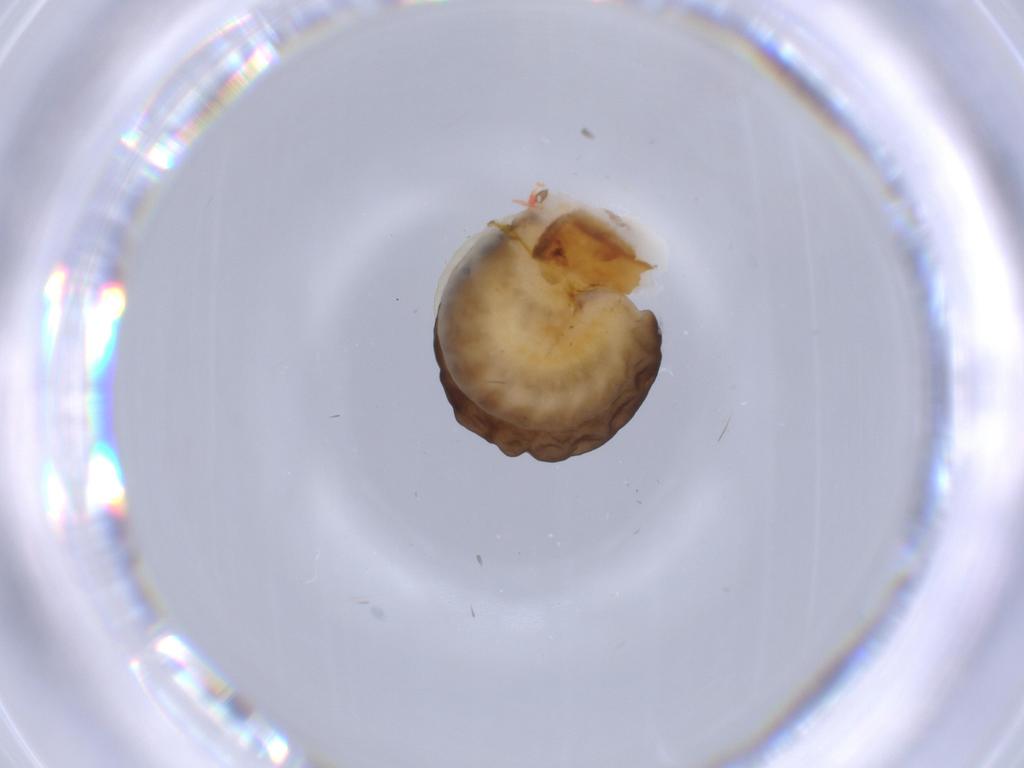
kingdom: Animalia
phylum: Arthropoda
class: Insecta
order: Hymenoptera
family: Dryinidae
